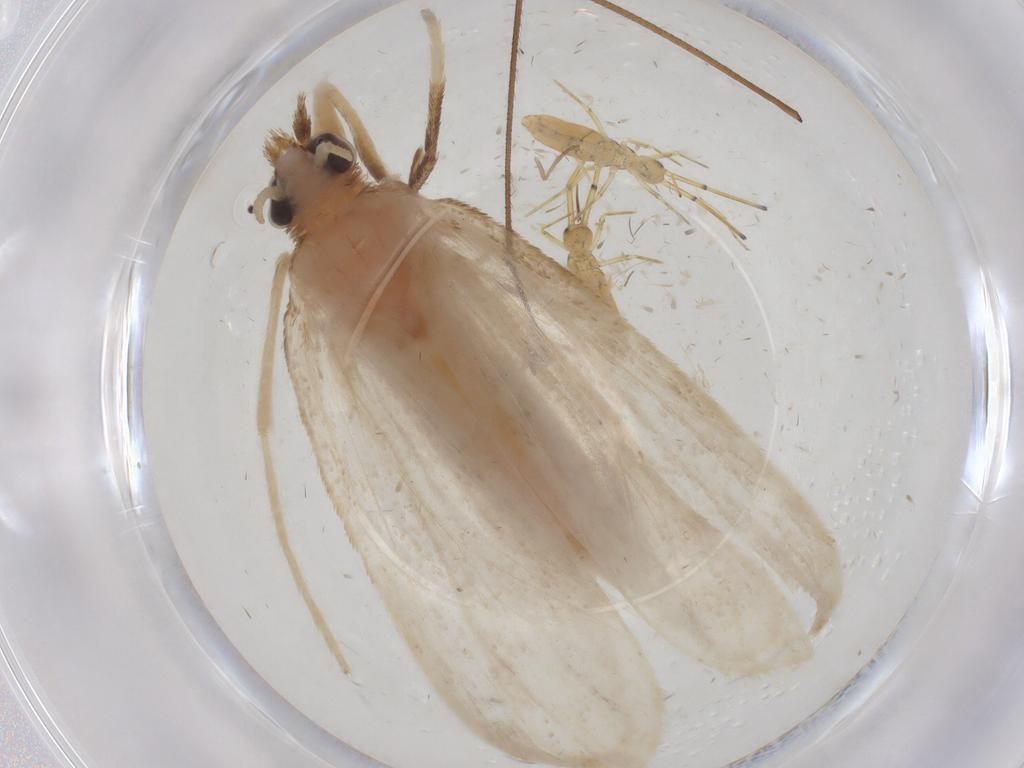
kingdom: Animalia
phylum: Arthropoda
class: Insecta
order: Lepidoptera
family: Crambidae
